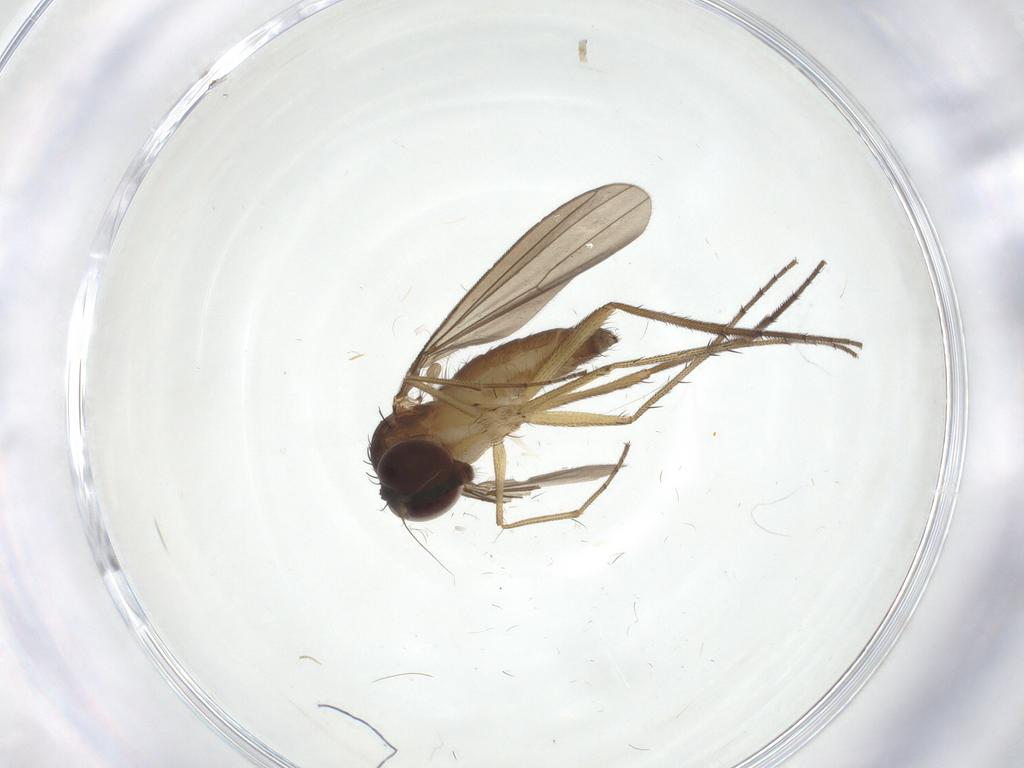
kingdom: Animalia
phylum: Arthropoda
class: Insecta
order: Diptera
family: Dolichopodidae
